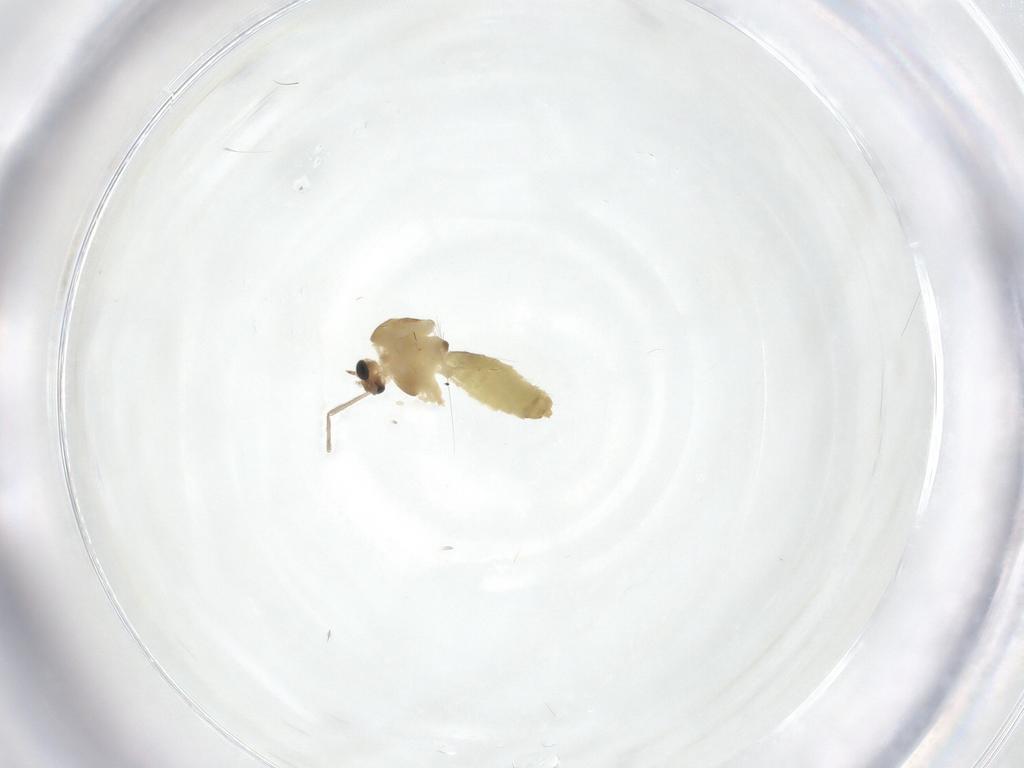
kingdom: Animalia
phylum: Arthropoda
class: Insecta
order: Diptera
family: Chironomidae
